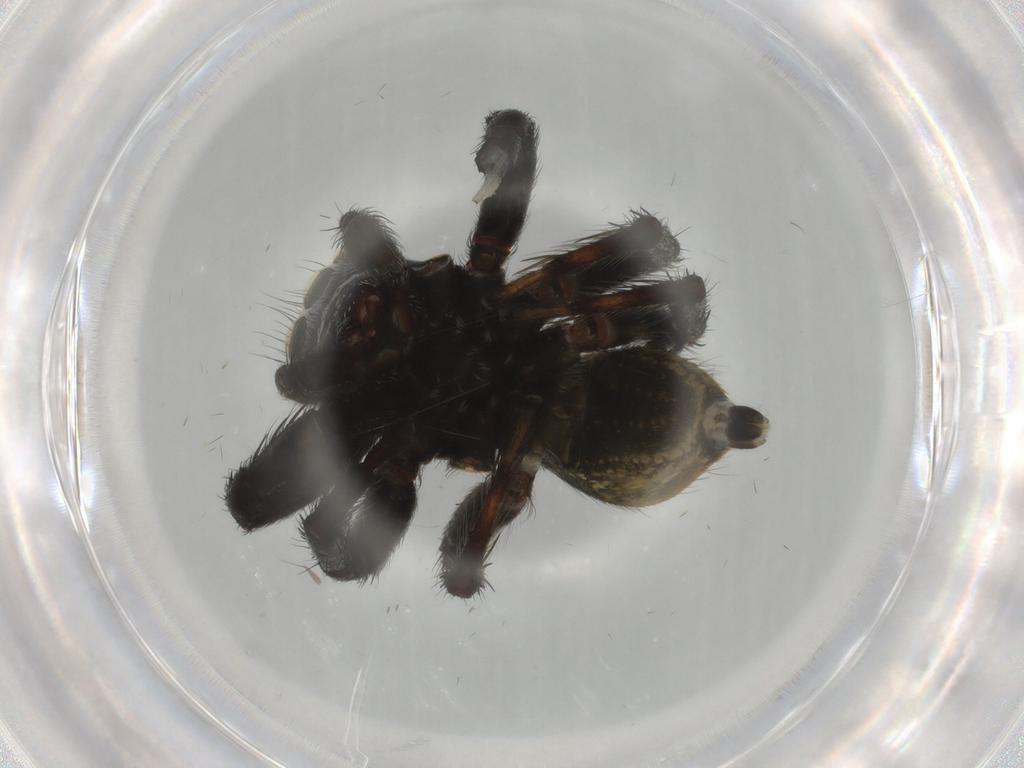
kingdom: Animalia
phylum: Arthropoda
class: Arachnida
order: Araneae
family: Salticidae
